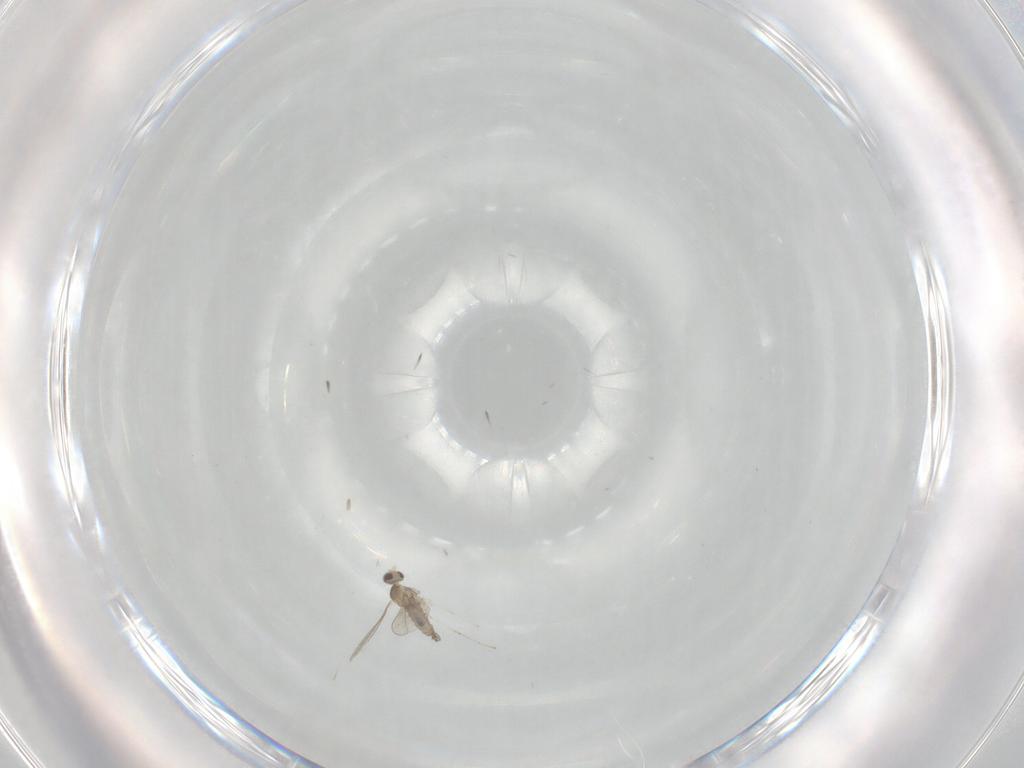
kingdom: Animalia
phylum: Arthropoda
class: Insecta
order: Diptera
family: Cecidomyiidae
